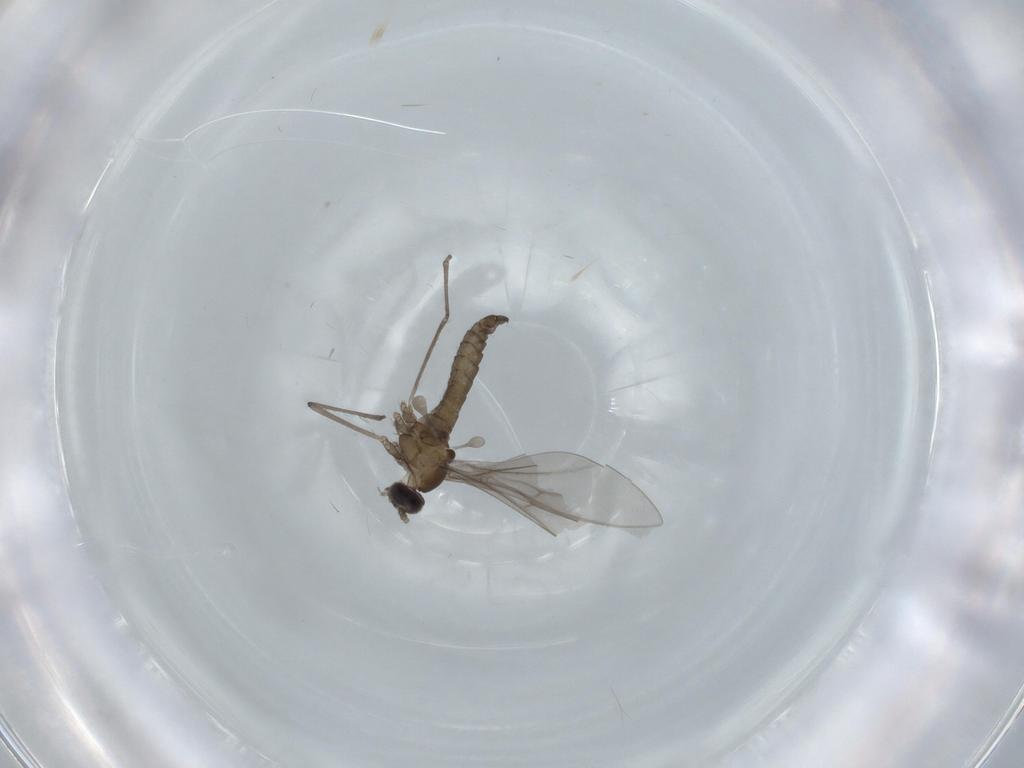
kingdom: Animalia
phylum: Arthropoda
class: Insecta
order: Diptera
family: Cecidomyiidae
